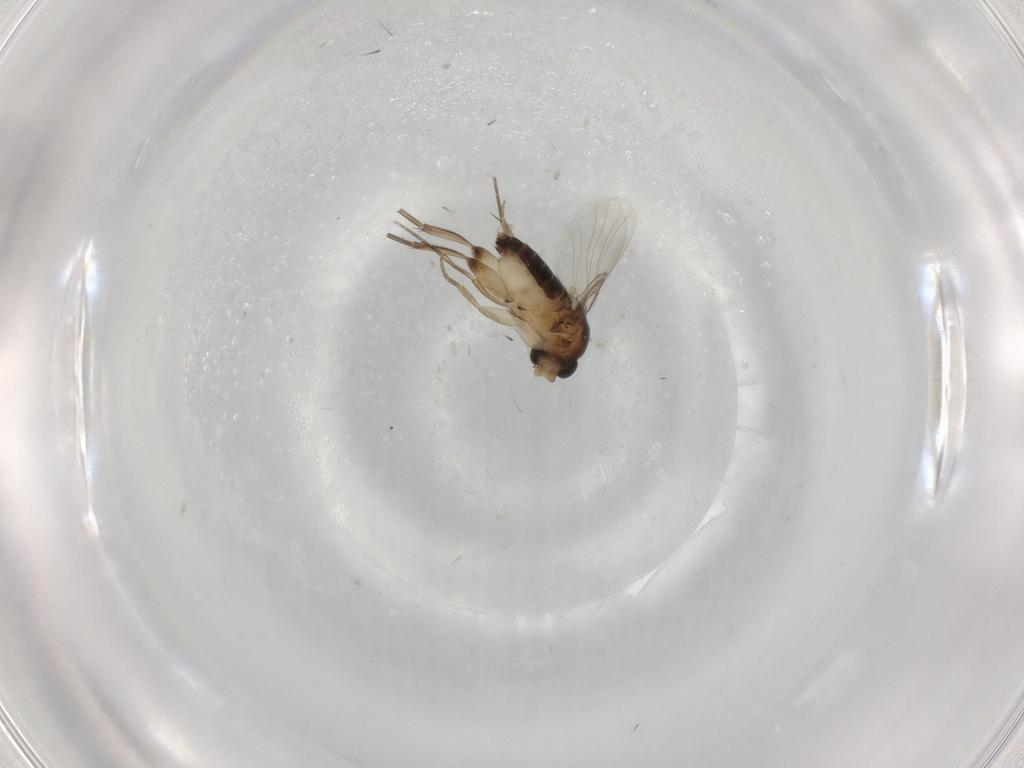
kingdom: Animalia
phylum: Arthropoda
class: Insecta
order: Diptera
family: Phoridae
